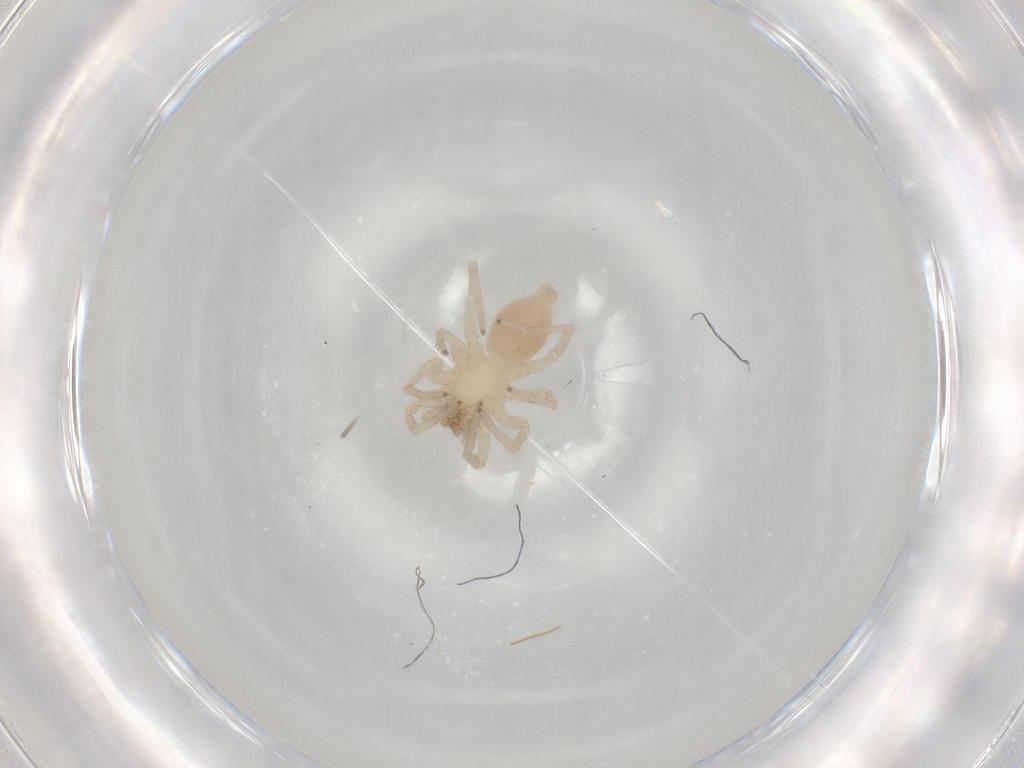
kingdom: Animalia
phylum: Arthropoda
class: Arachnida
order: Araneae
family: Clubionidae
